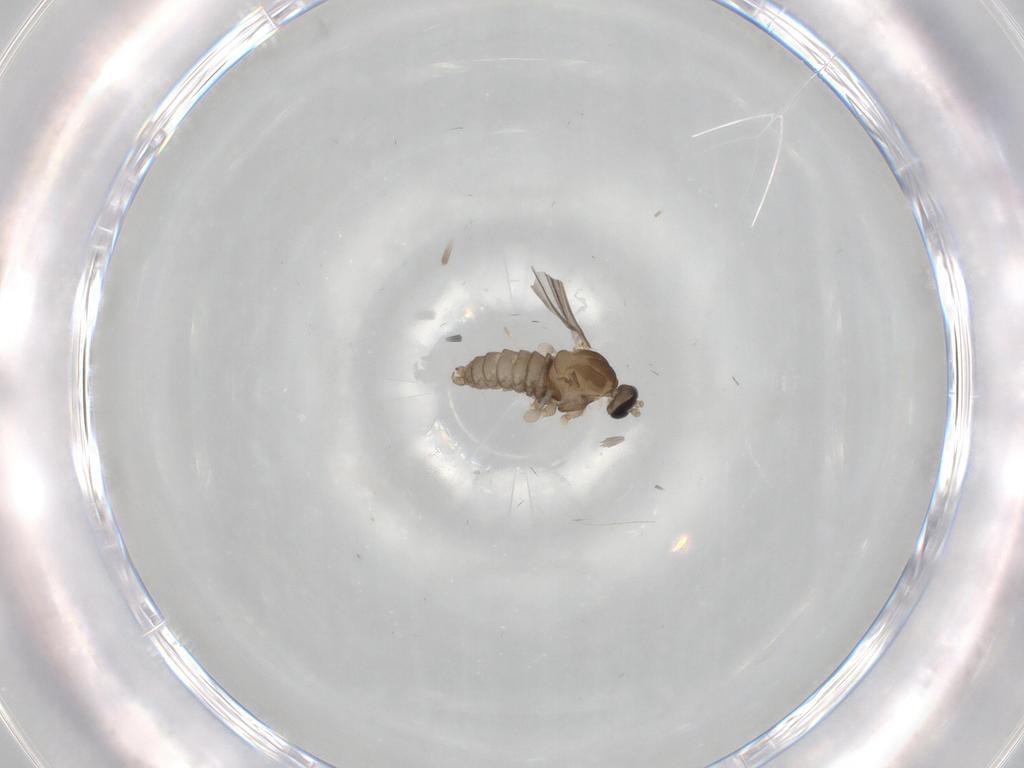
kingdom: Animalia
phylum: Arthropoda
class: Insecta
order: Diptera
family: Cecidomyiidae
